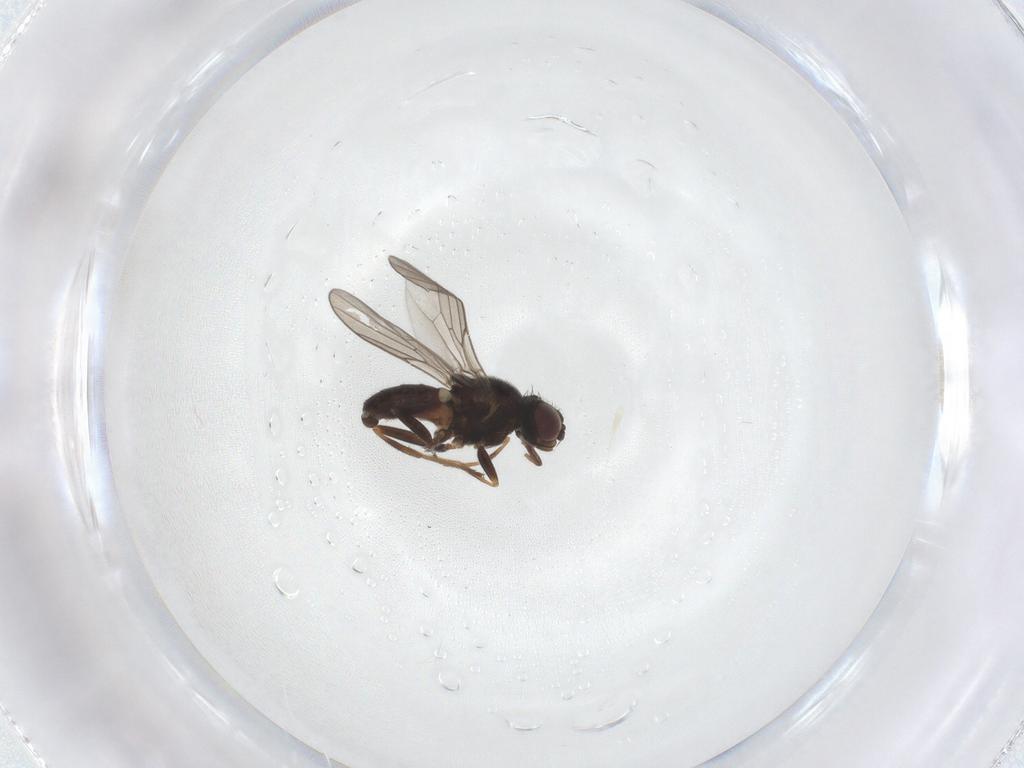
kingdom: Animalia
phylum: Arthropoda
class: Insecta
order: Diptera
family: Chloropidae
